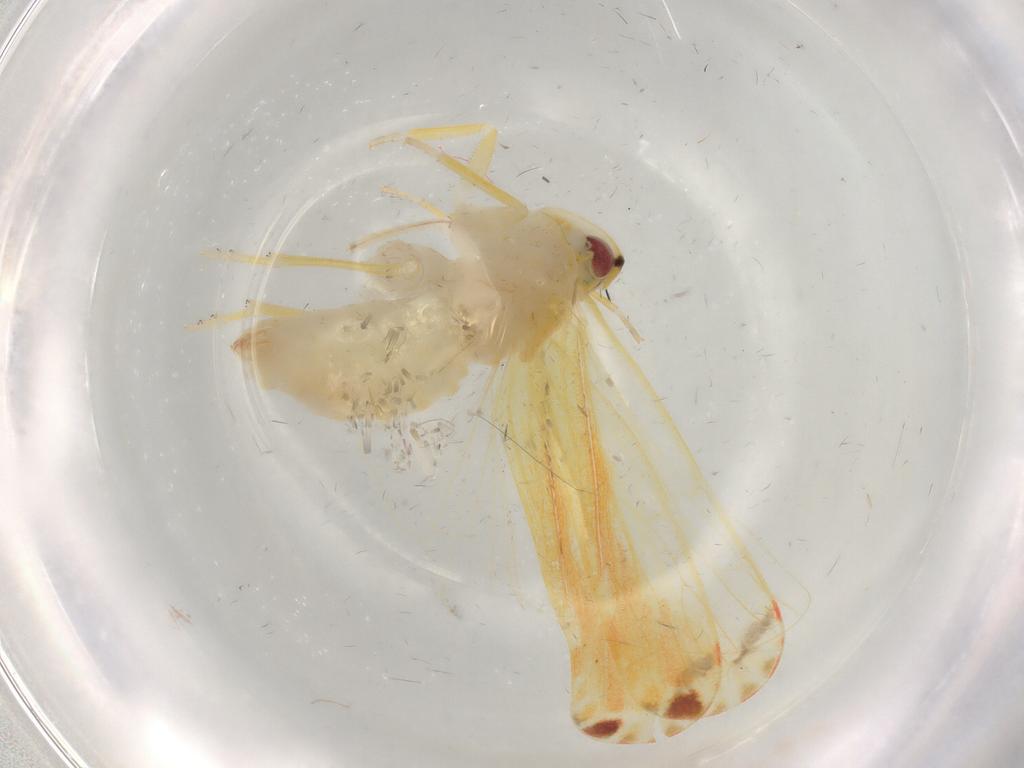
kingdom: Animalia
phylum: Arthropoda
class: Insecta
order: Hemiptera
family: Derbidae
